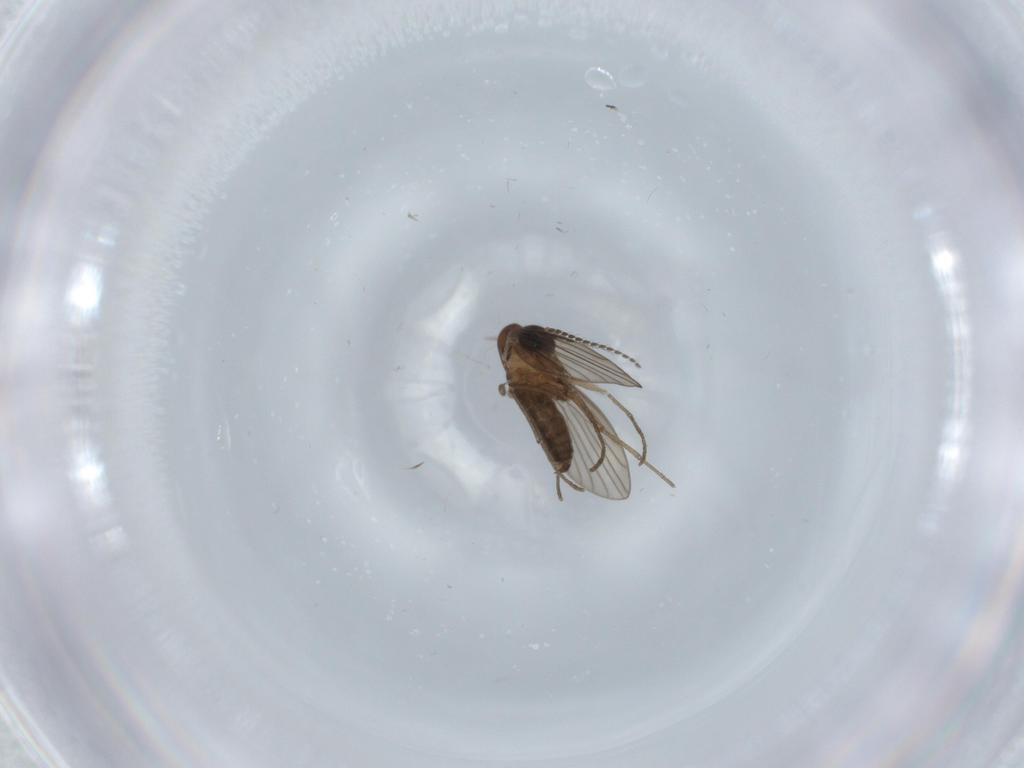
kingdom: Animalia
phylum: Arthropoda
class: Insecta
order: Diptera
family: Psychodidae
